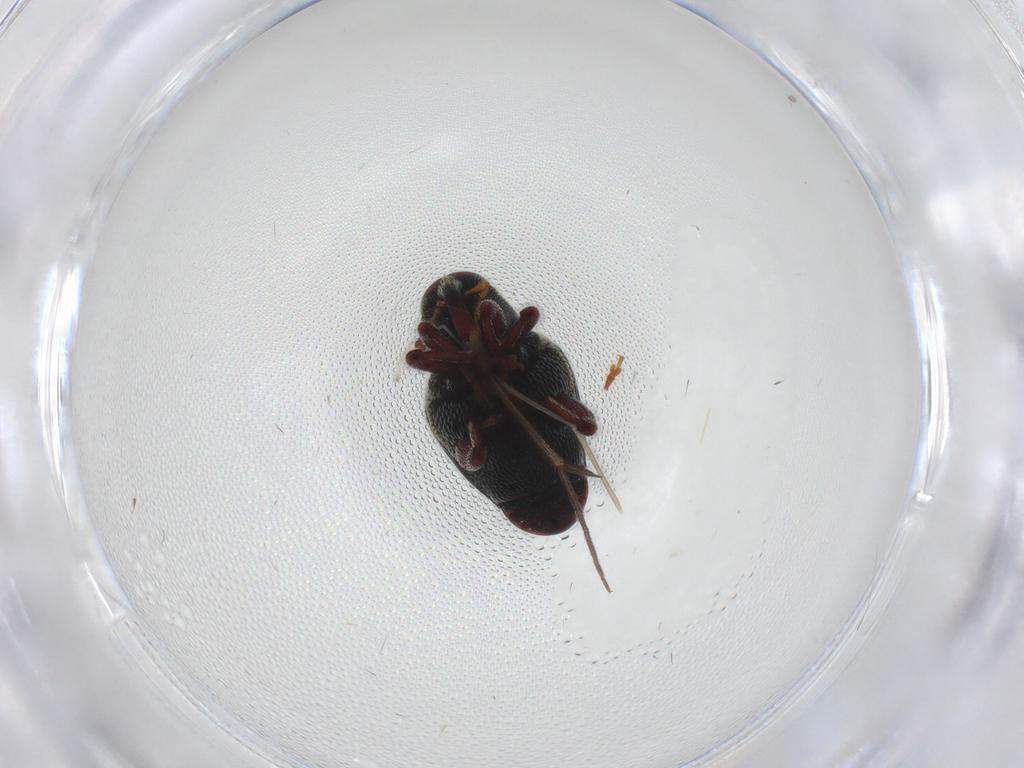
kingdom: Animalia
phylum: Arthropoda
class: Insecta
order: Coleoptera
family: Curculionidae
